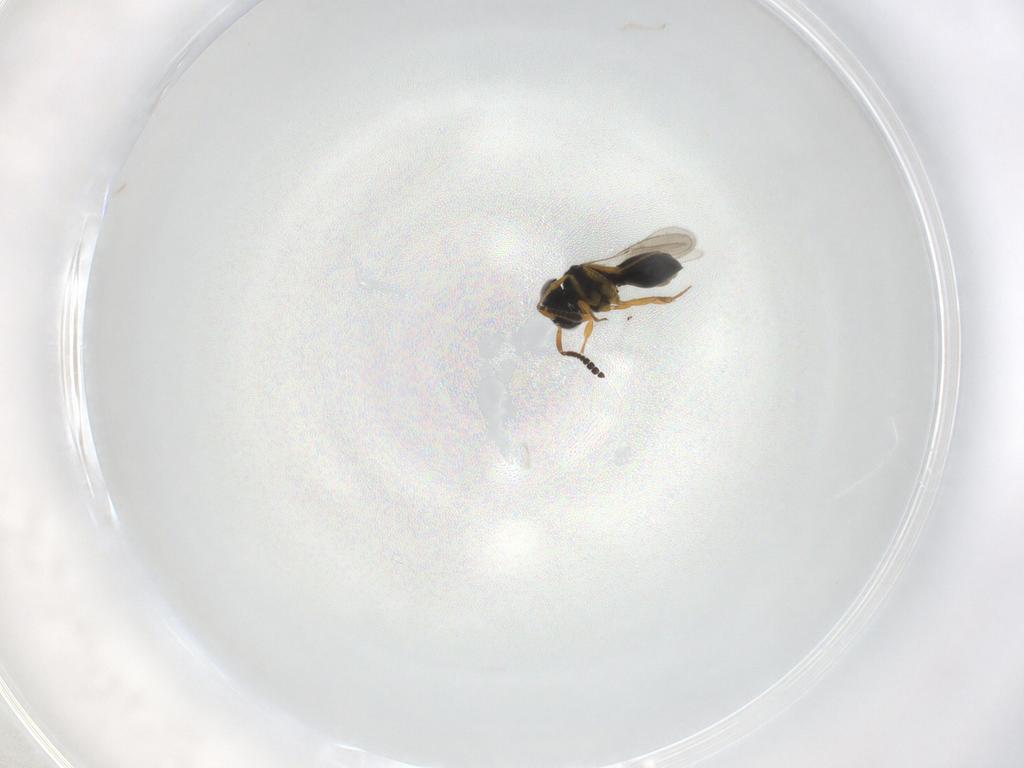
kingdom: Animalia
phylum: Arthropoda
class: Insecta
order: Hymenoptera
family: Scelionidae
